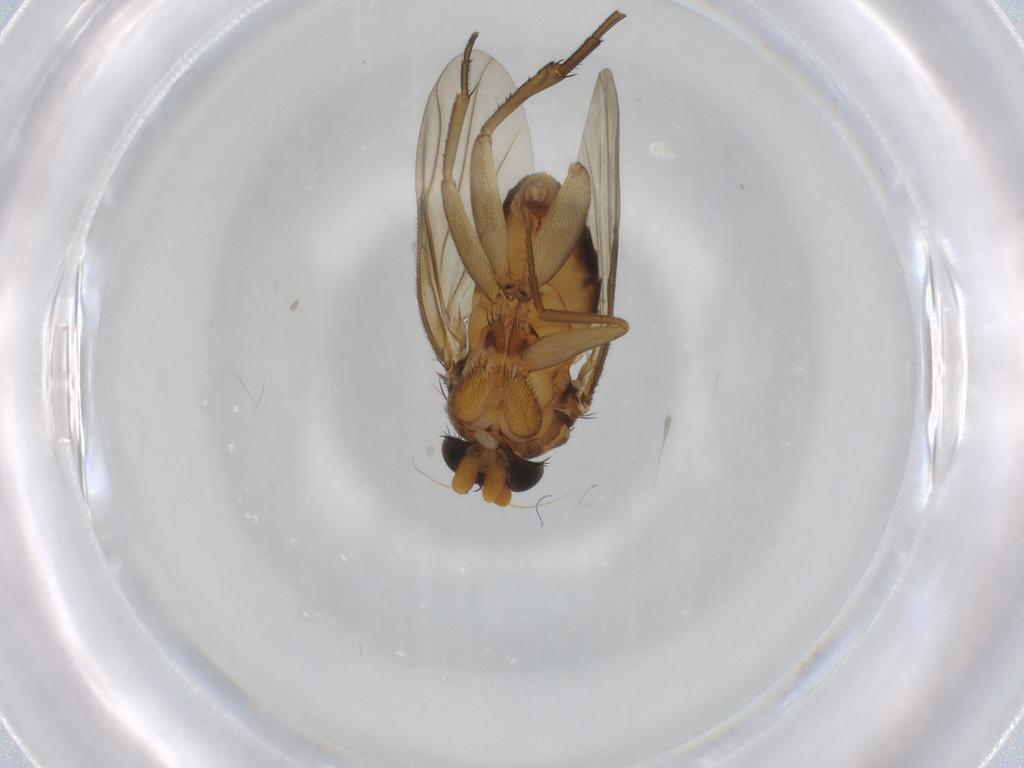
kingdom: Animalia
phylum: Arthropoda
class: Insecta
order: Diptera
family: Phoridae
